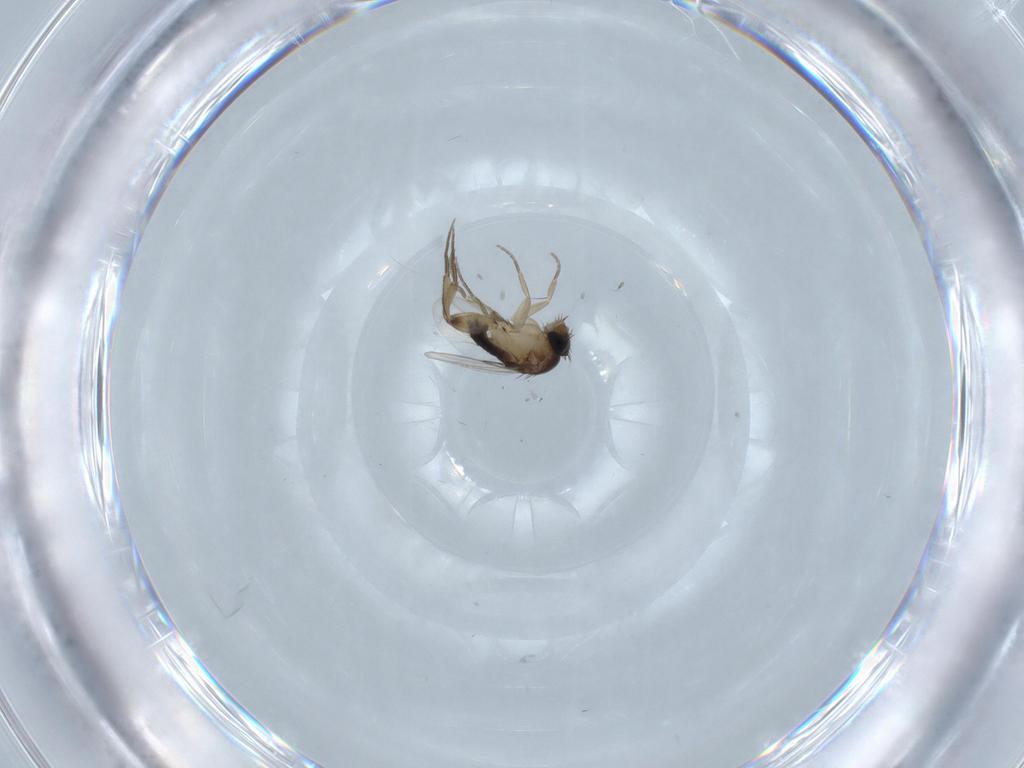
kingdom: Animalia
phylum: Arthropoda
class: Insecta
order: Diptera
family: Phoridae
